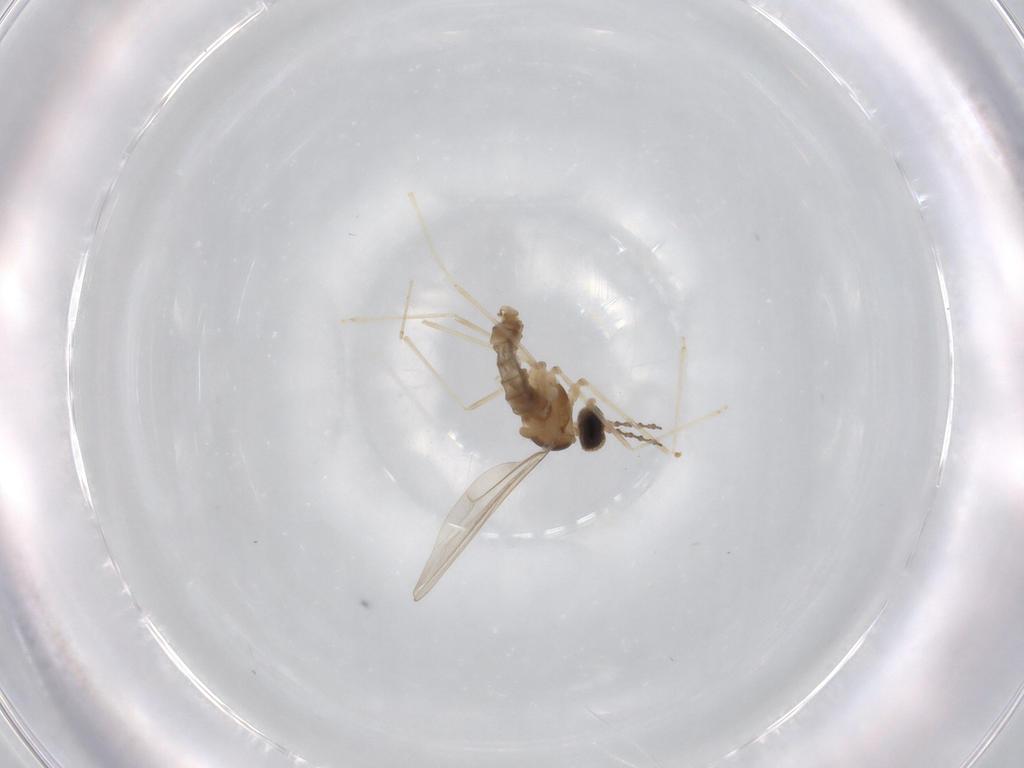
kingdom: Animalia
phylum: Arthropoda
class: Insecta
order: Diptera
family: Cecidomyiidae
